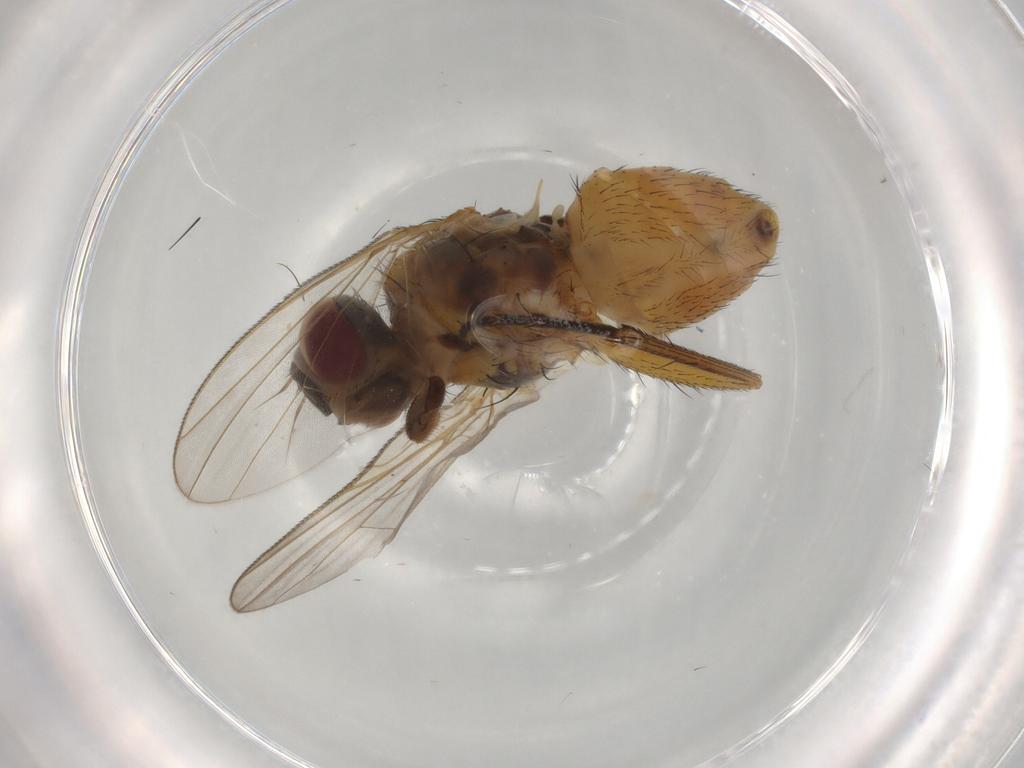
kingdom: Animalia
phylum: Arthropoda
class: Insecta
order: Diptera
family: Muscidae
